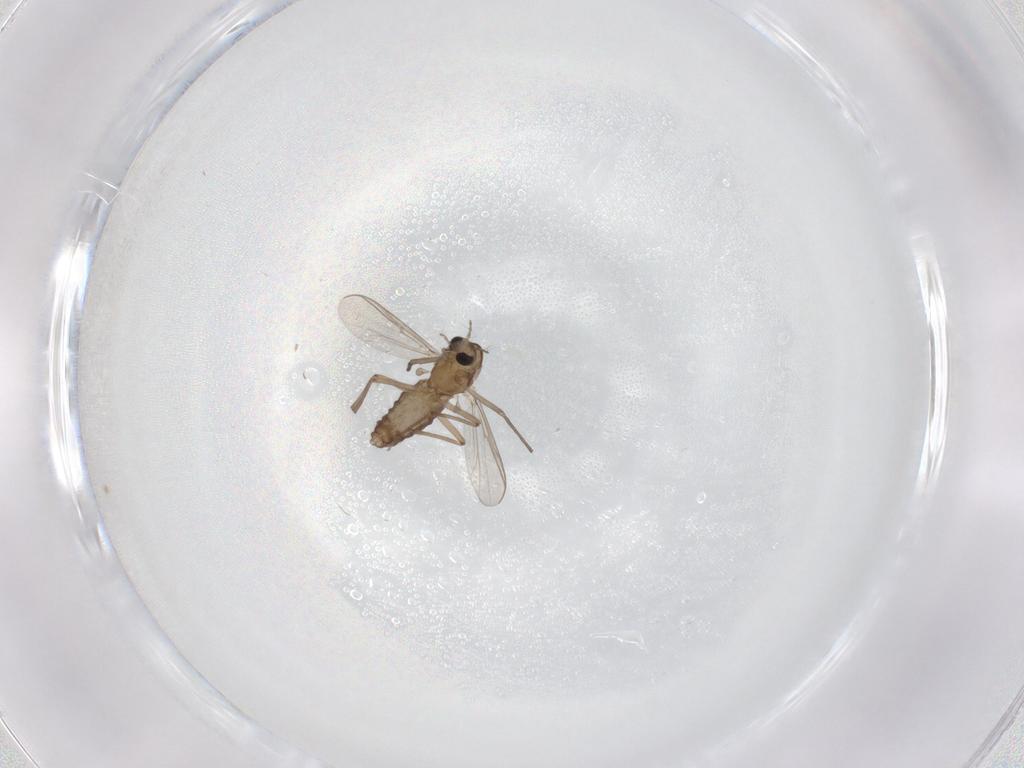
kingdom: Animalia
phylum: Arthropoda
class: Insecta
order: Diptera
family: Chironomidae
